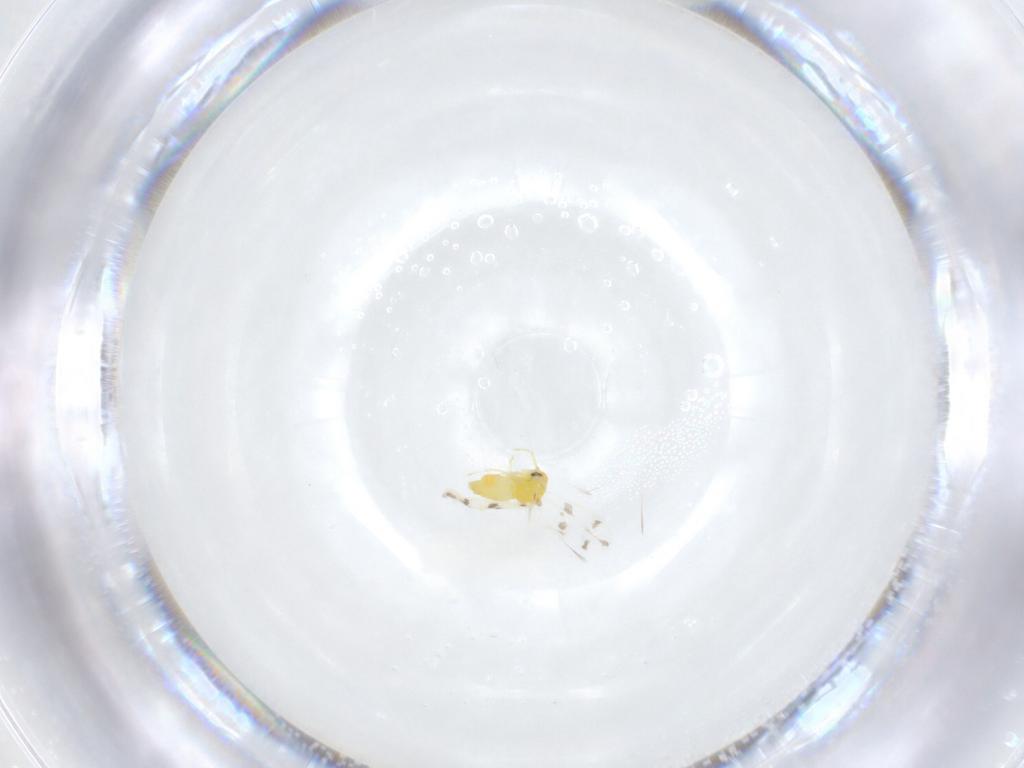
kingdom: Animalia
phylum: Arthropoda
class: Insecta
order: Hemiptera
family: Aleyrodidae
